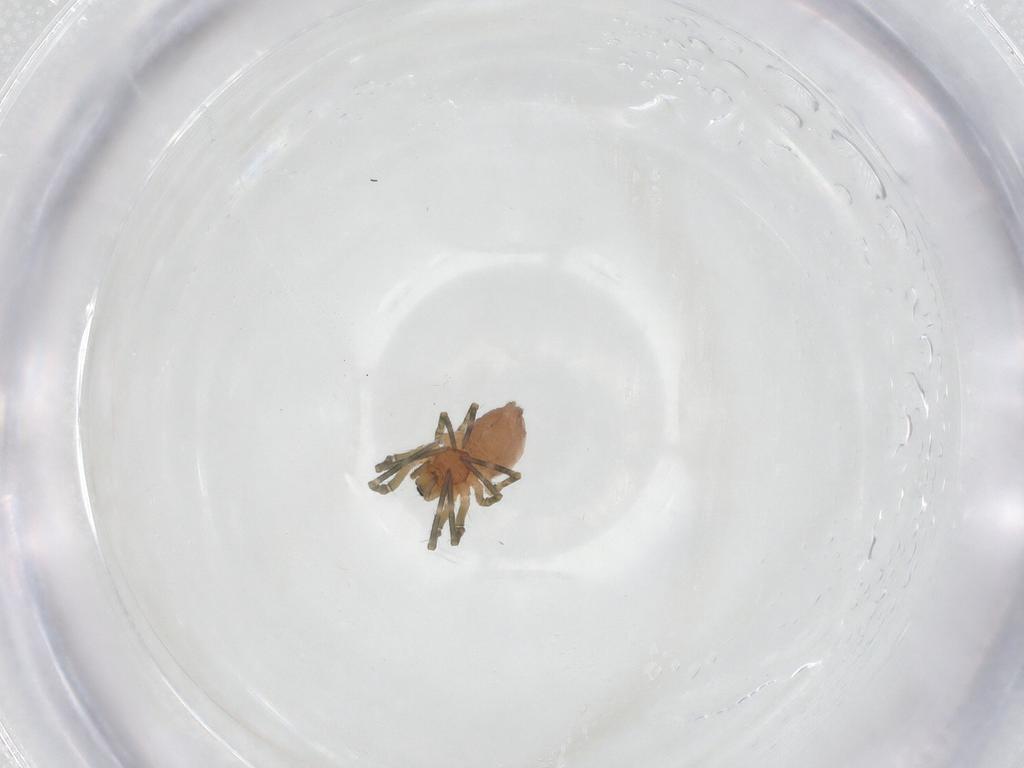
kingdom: Animalia
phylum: Arthropoda
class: Arachnida
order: Araneae
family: Linyphiidae
